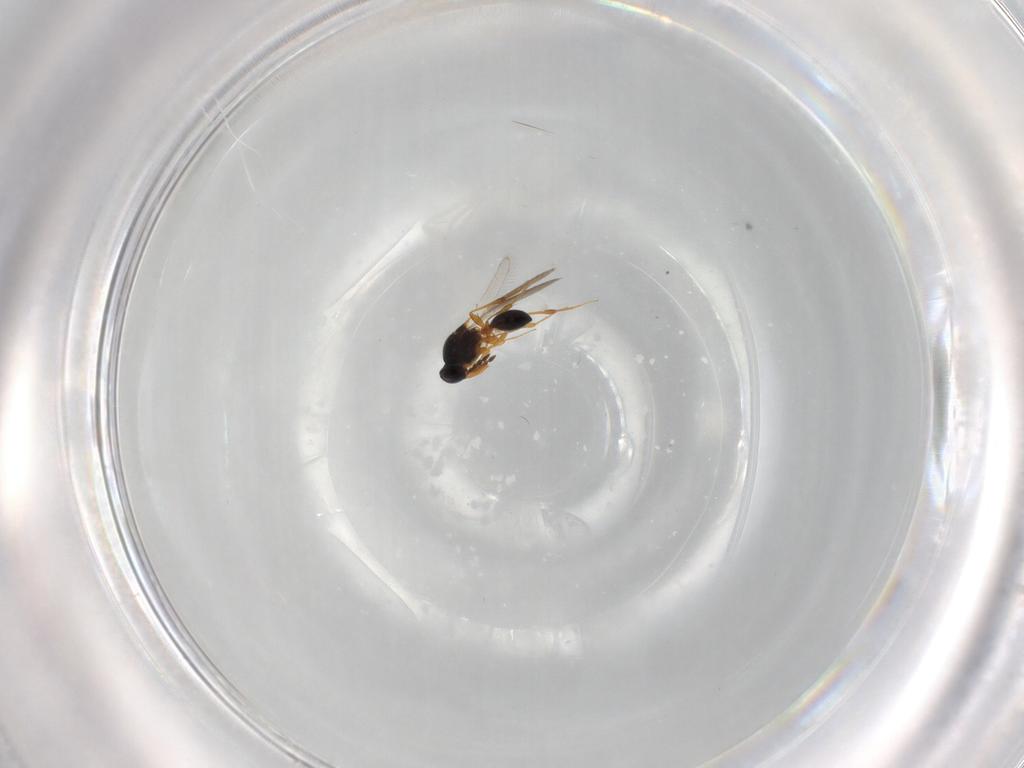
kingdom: Animalia
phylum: Arthropoda
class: Insecta
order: Hymenoptera
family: Platygastridae
